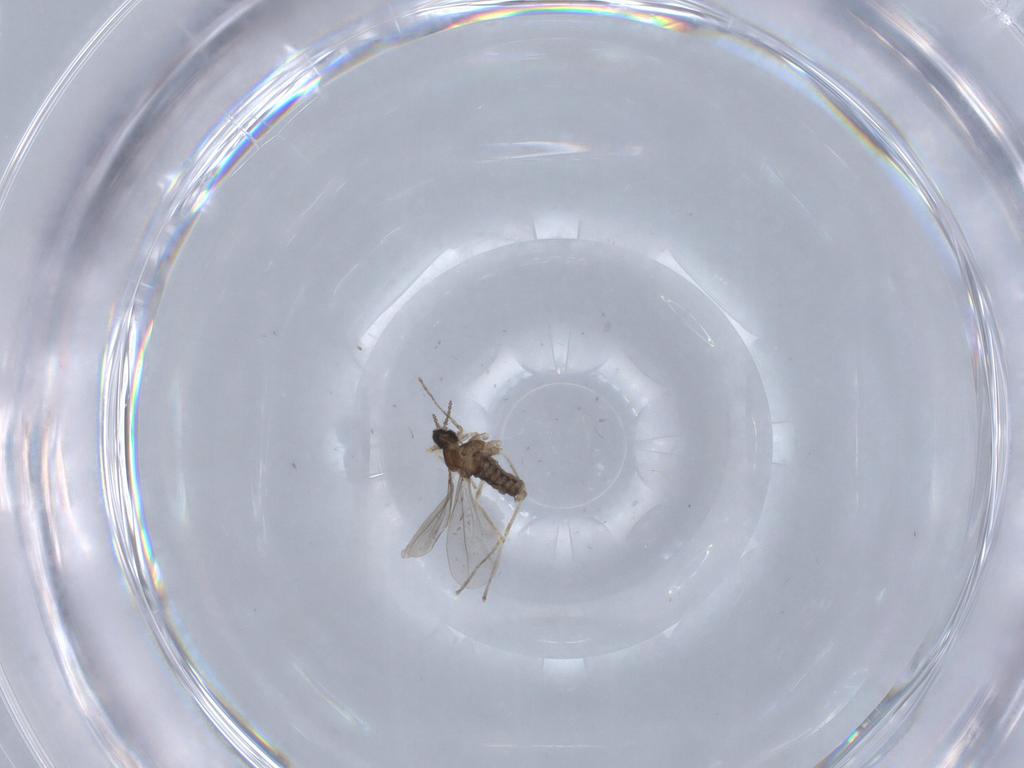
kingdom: Animalia
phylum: Arthropoda
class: Insecta
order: Diptera
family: Cecidomyiidae
